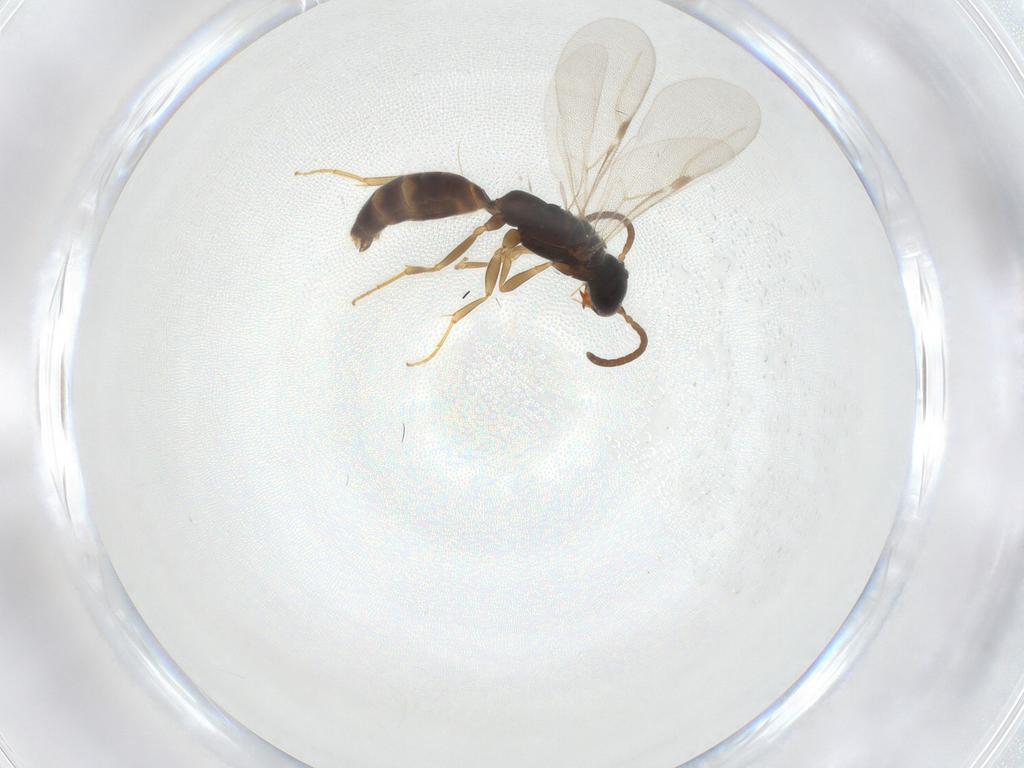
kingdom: Animalia
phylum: Arthropoda
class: Insecta
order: Hymenoptera
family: Bethylidae
